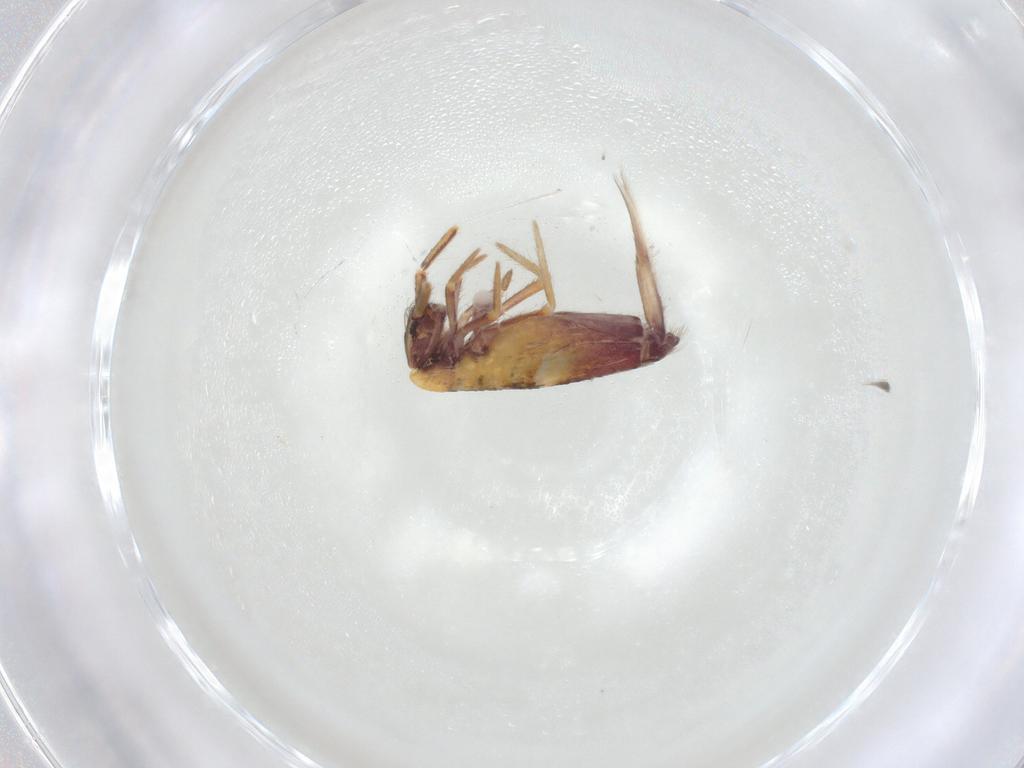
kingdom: Animalia
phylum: Arthropoda
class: Collembola
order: Entomobryomorpha
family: Entomobryidae
